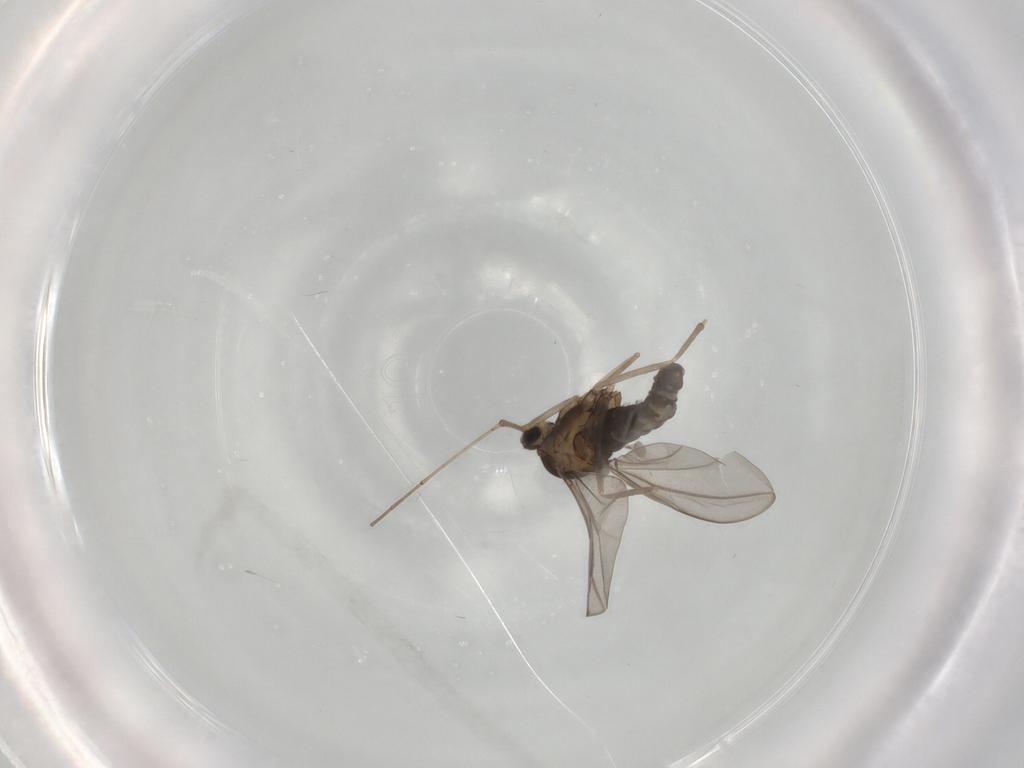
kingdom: Animalia
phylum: Arthropoda
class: Insecta
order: Diptera
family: Cecidomyiidae
